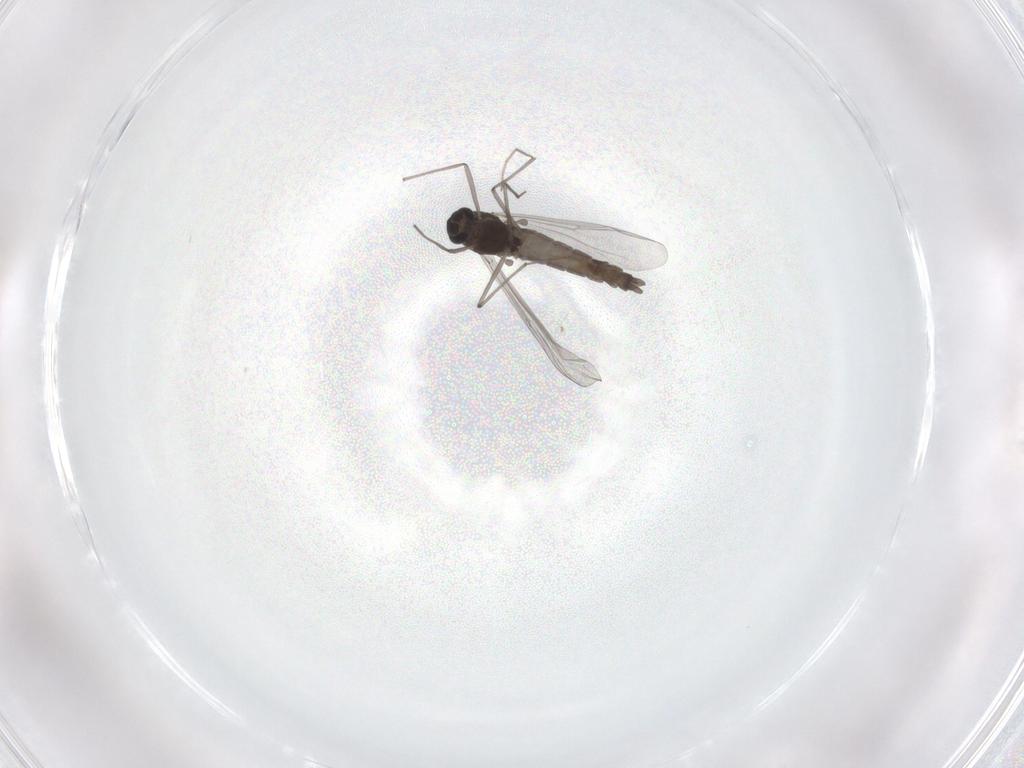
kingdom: Animalia
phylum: Arthropoda
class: Insecta
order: Diptera
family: Chironomidae
